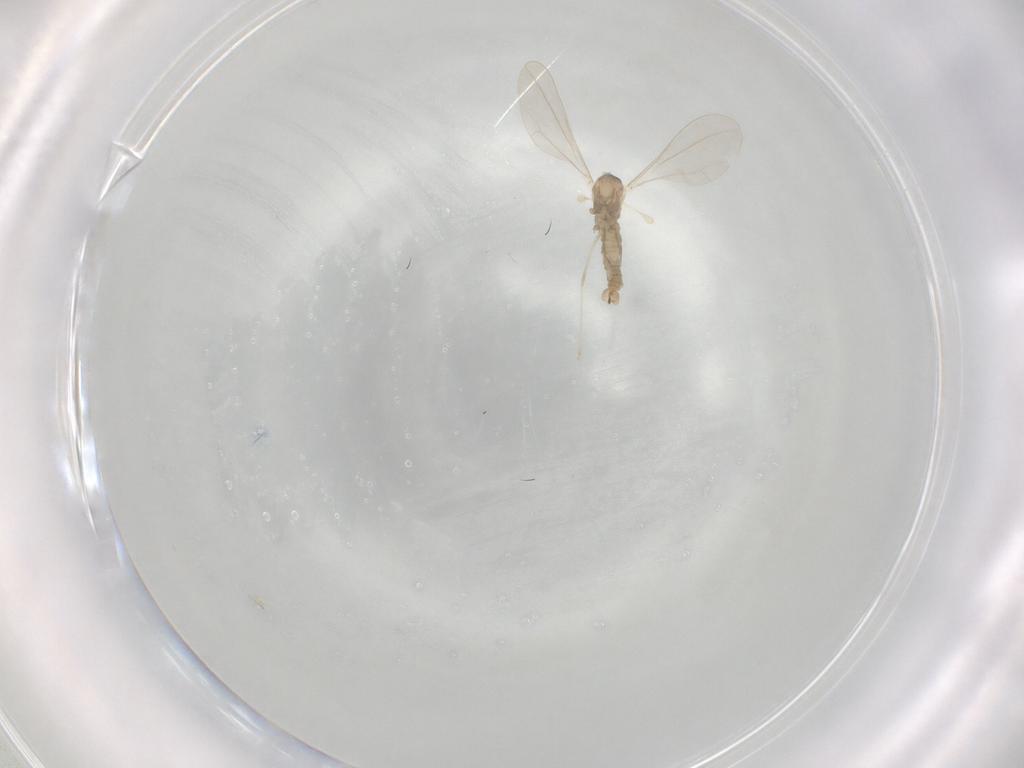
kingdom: Animalia
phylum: Arthropoda
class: Insecta
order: Diptera
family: Cecidomyiidae
